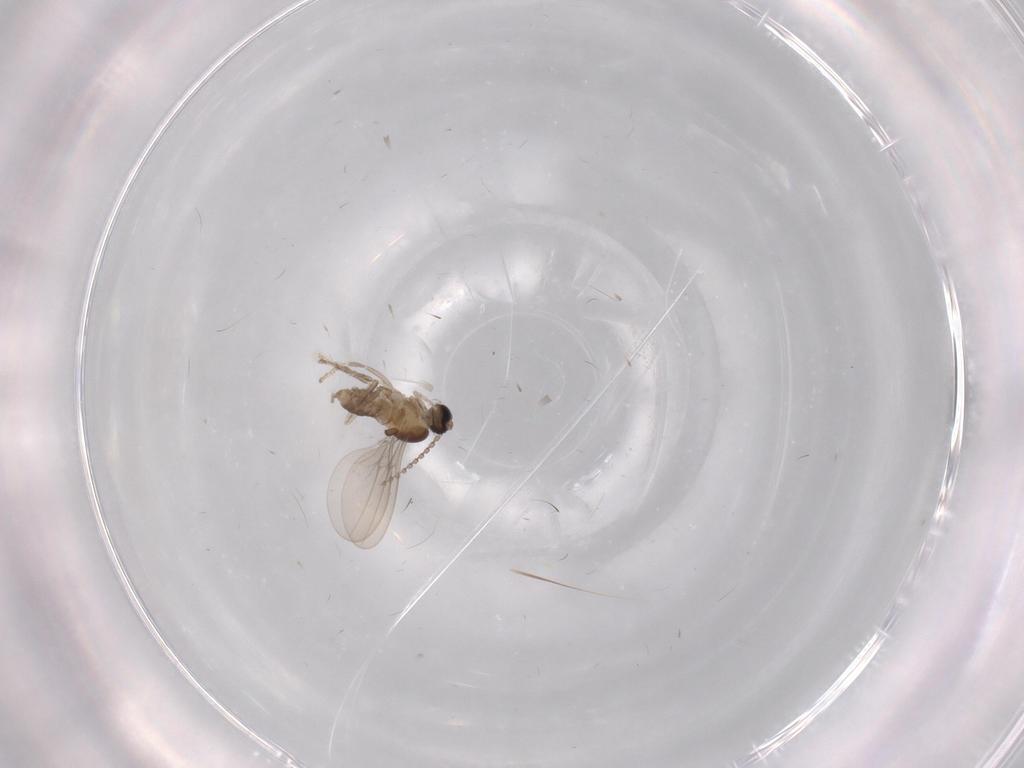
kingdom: Animalia
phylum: Arthropoda
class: Insecta
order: Diptera
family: Cecidomyiidae
